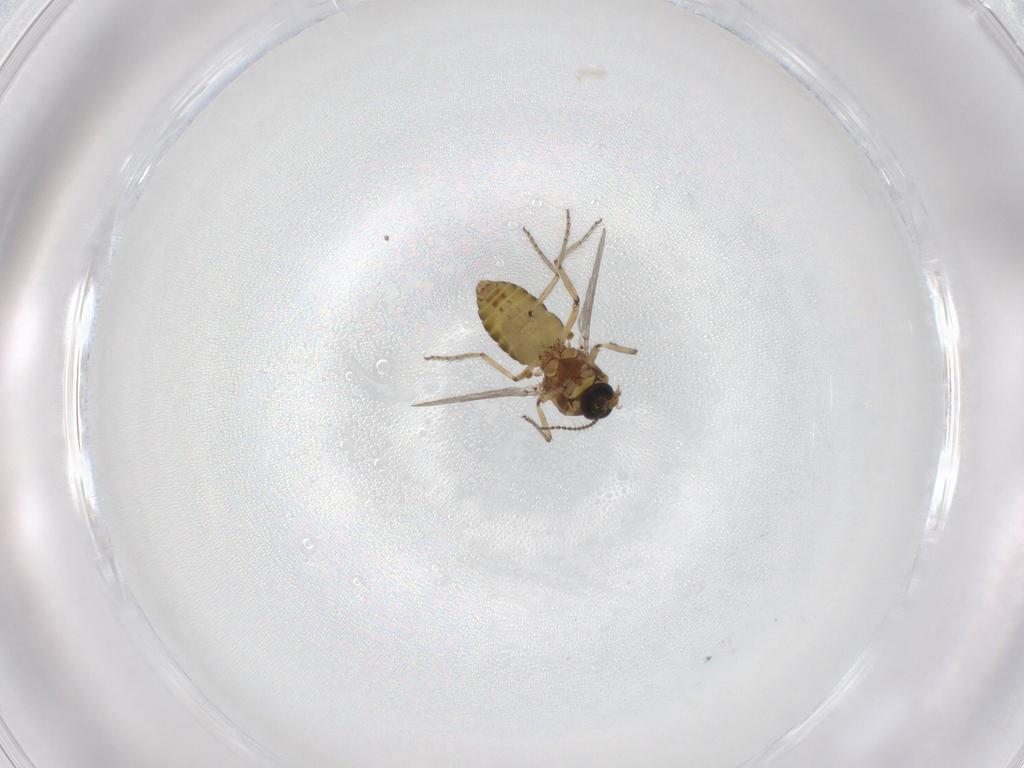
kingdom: Animalia
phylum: Arthropoda
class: Insecta
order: Diptera
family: Ceratopogonidae
